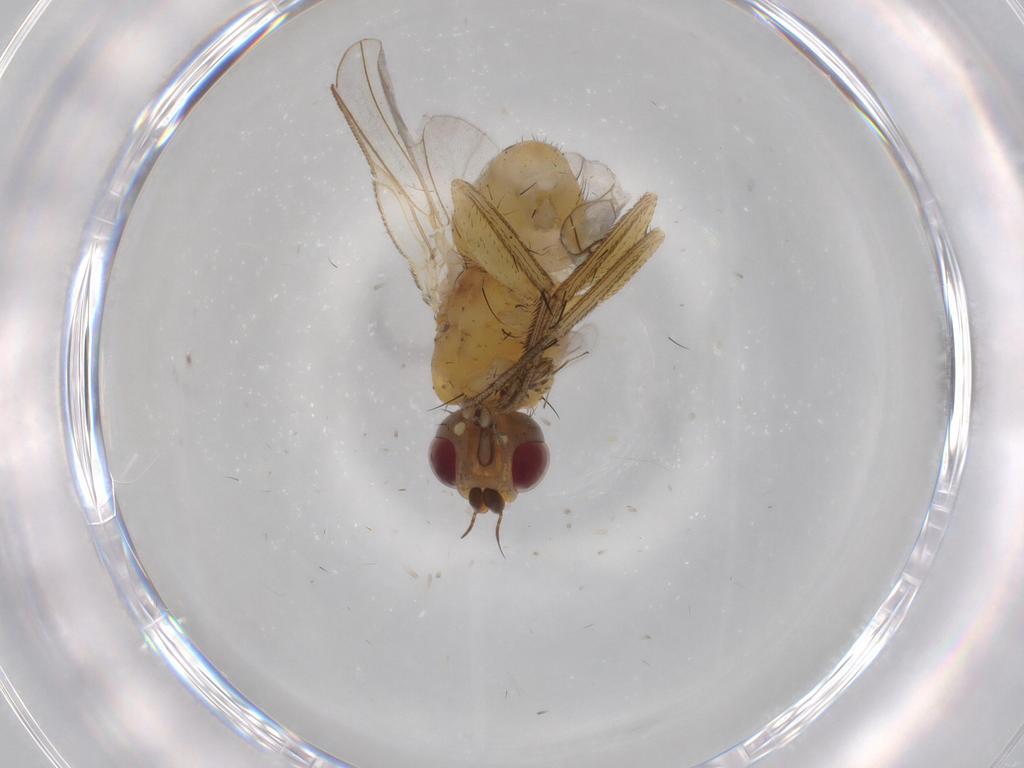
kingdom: Animalia
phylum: Arthropoda
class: Insecta
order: Diptera
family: Muscidae
